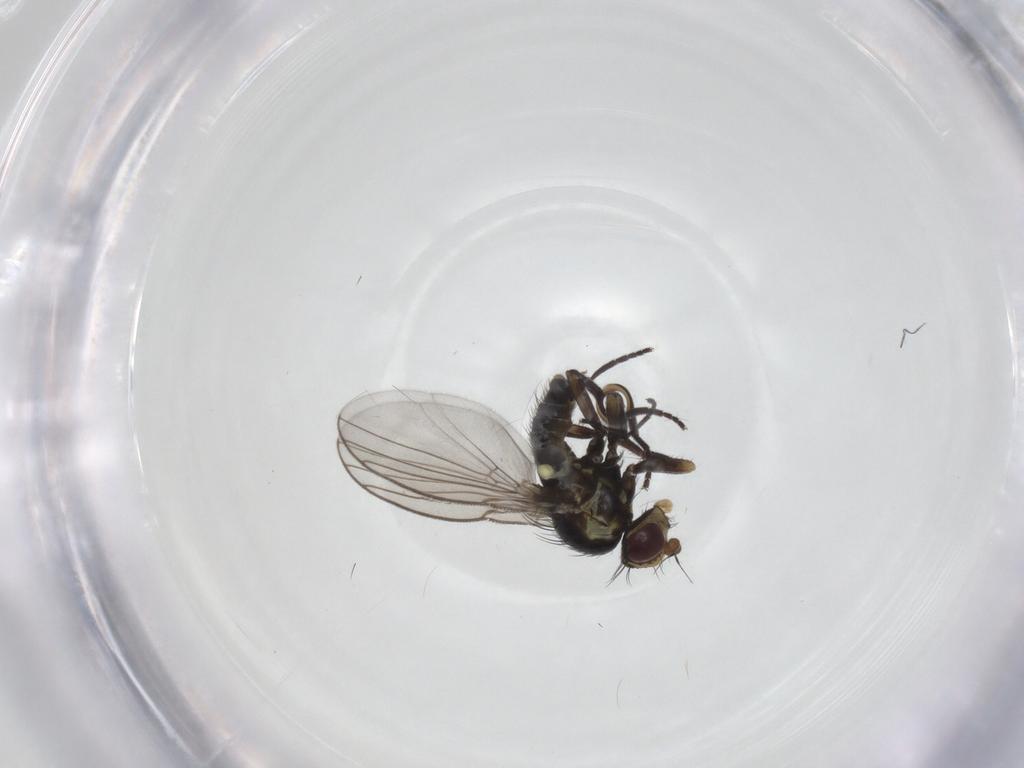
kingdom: Animalia
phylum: Arthropoda
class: Insecta
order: Diptera
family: Agromyzidae
